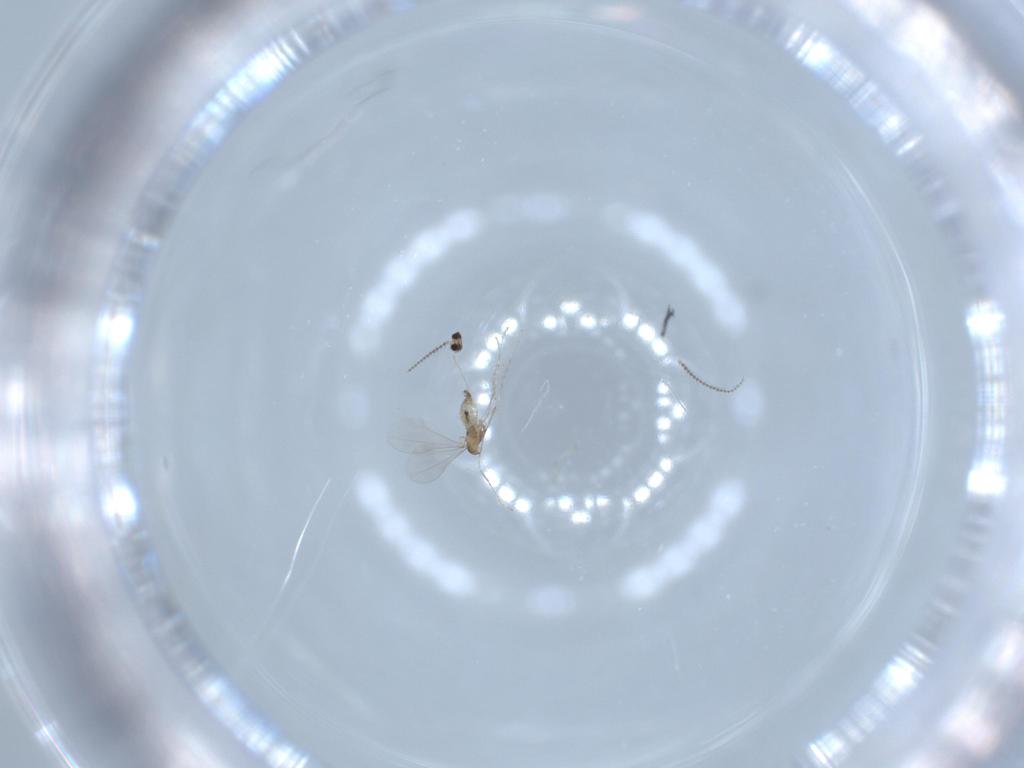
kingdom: Animalia
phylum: Arthropoda
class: Insecta
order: Diptera
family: Cecidomyiidae
